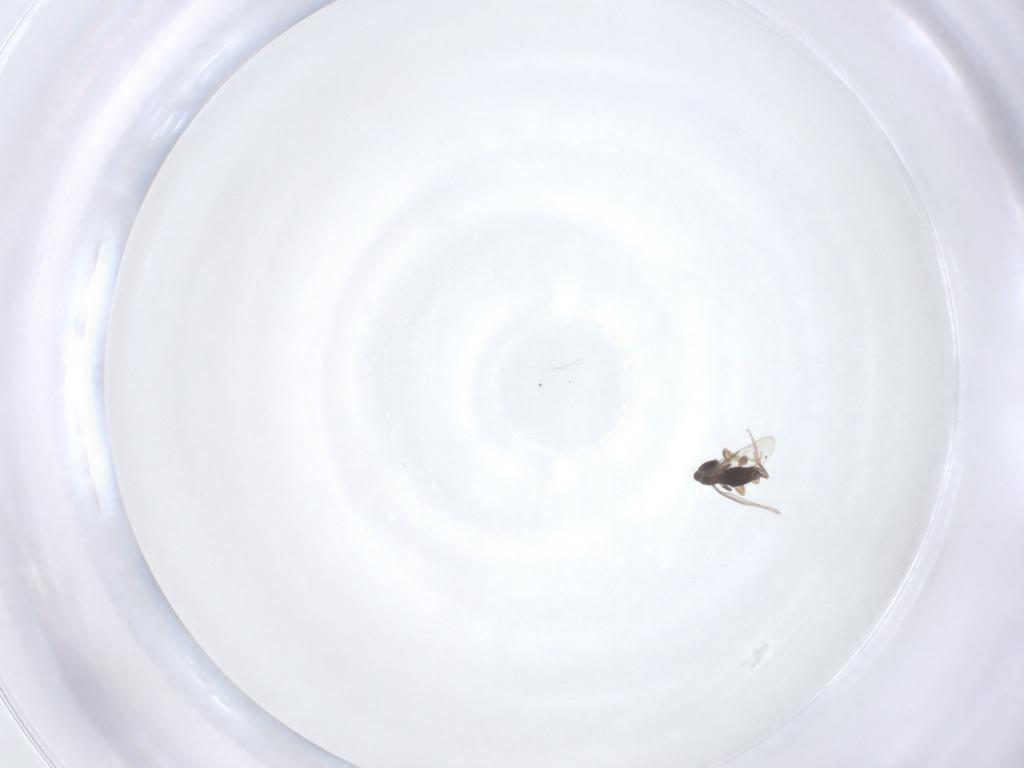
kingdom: Animalia
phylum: Arthropoda
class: Insecta
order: Diptera
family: Phoridae
